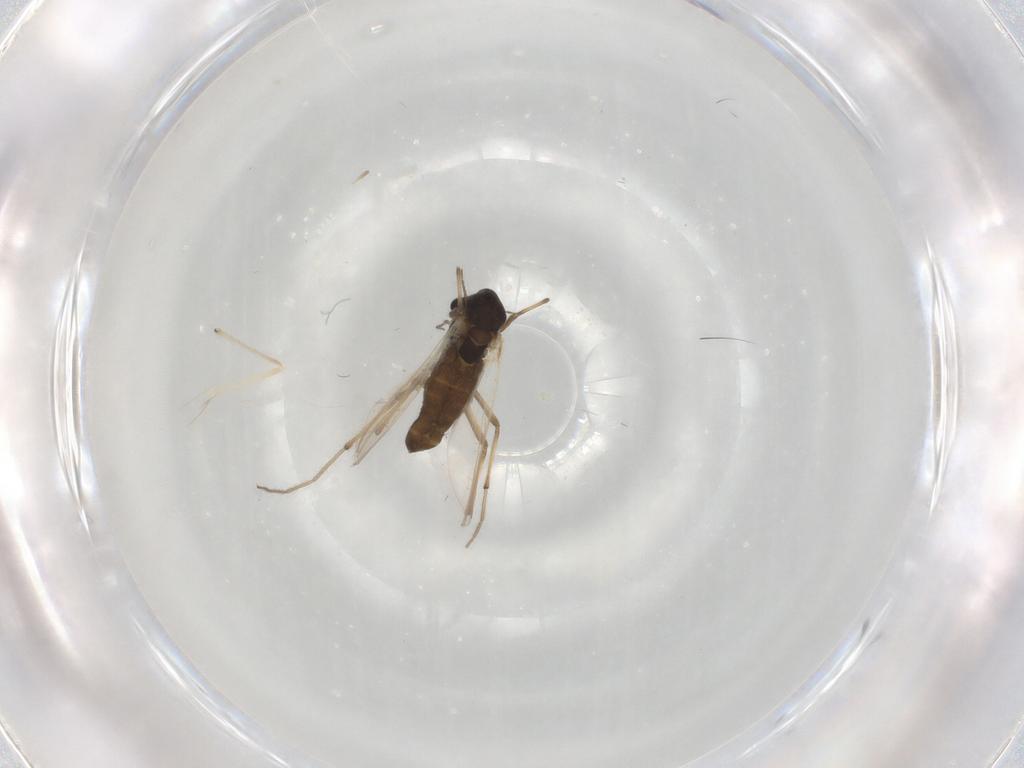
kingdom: Animalia
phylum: Arthropoda
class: Insecta
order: Diptera
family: Chironomidae
